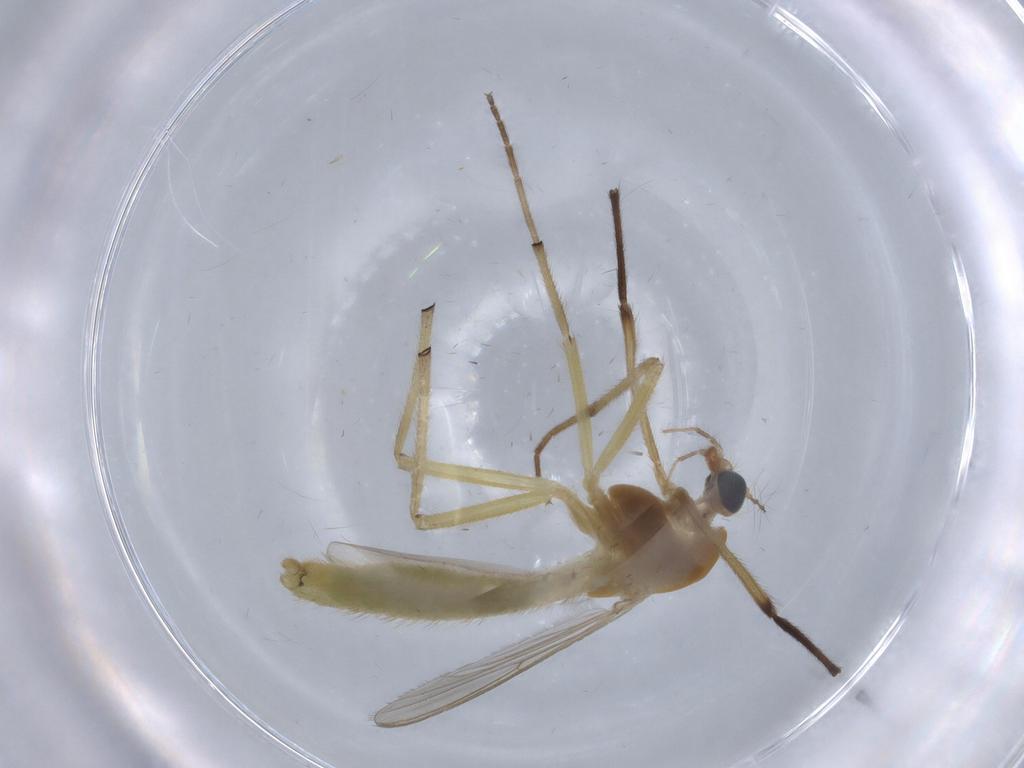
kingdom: Animalia
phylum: Arthropoda
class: Insecta
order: Diptera
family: Chironomidae
